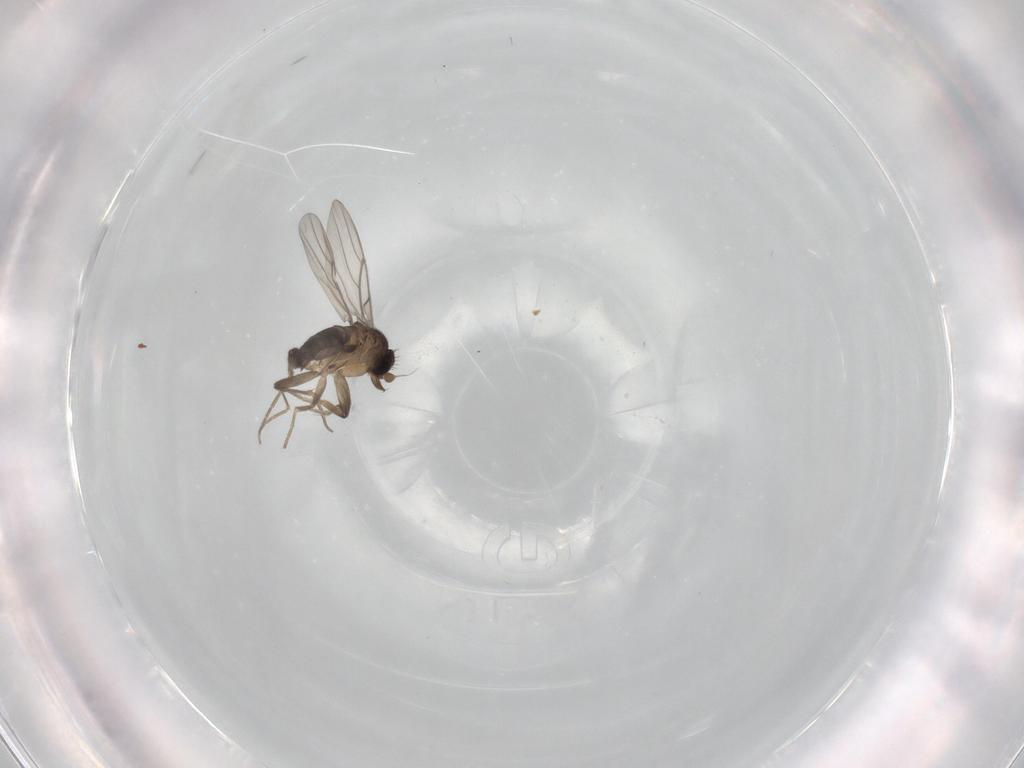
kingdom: Animalia
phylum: Arthropoda
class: Insecta
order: Diptera
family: Phoridae
